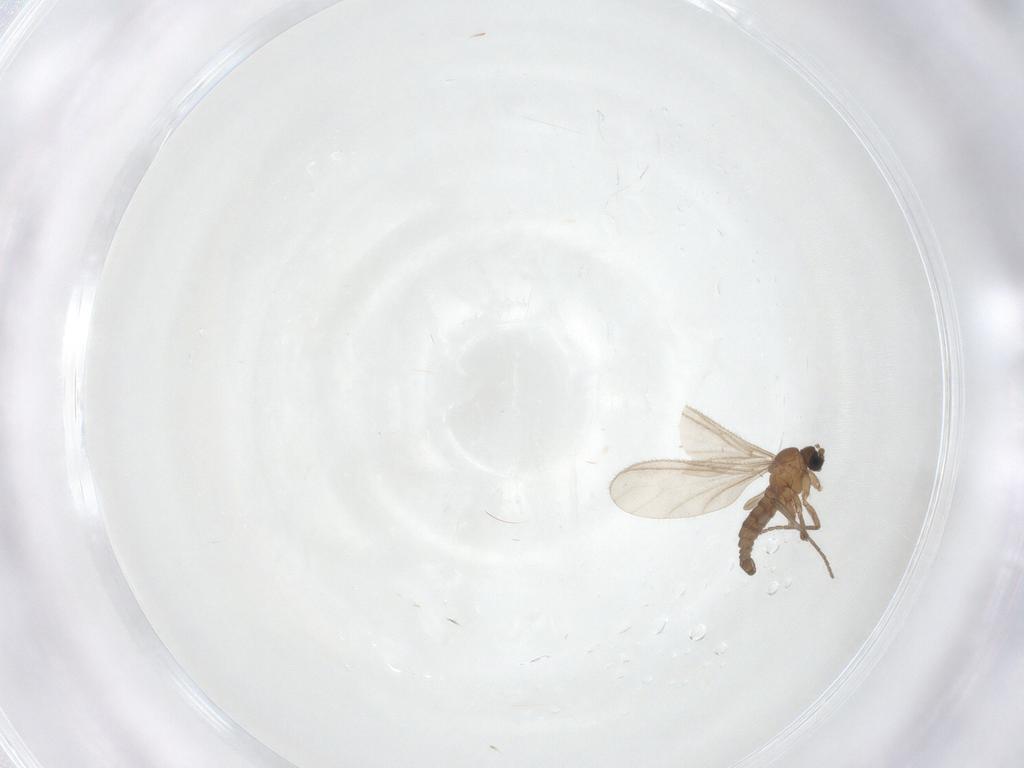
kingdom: Animalia
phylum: Arthropoda
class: Insecta
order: Diptera
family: Sciaridae
